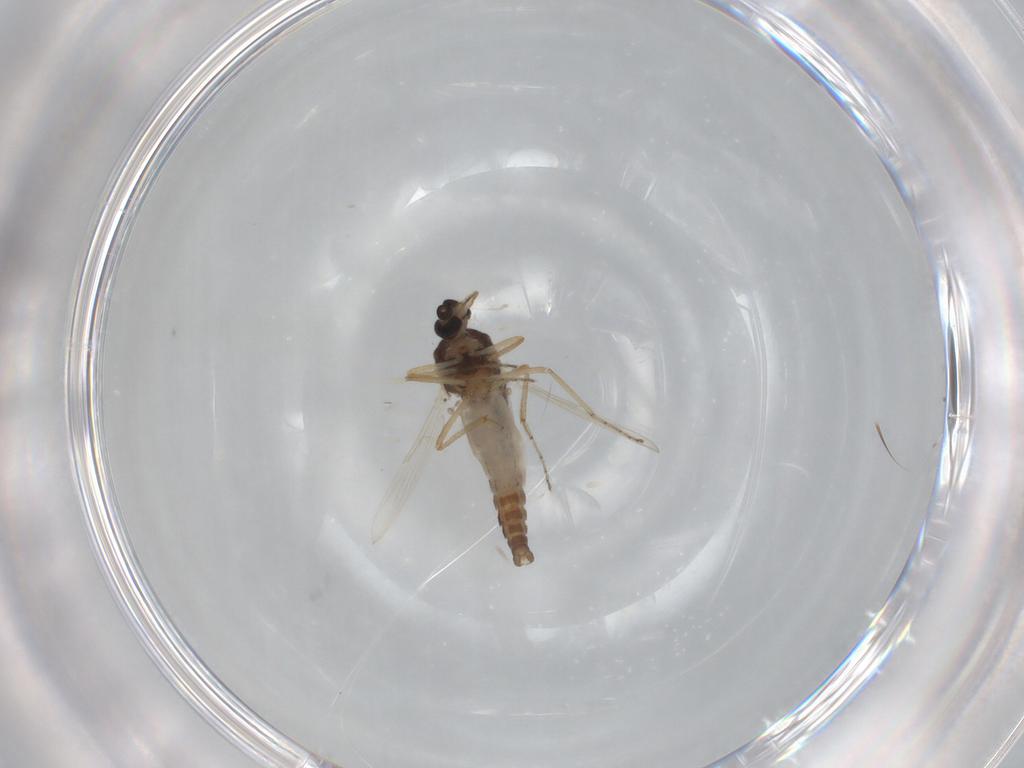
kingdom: Animalia
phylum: Arthropoda
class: Insecta
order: Diptera
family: Ceratopogonidae
